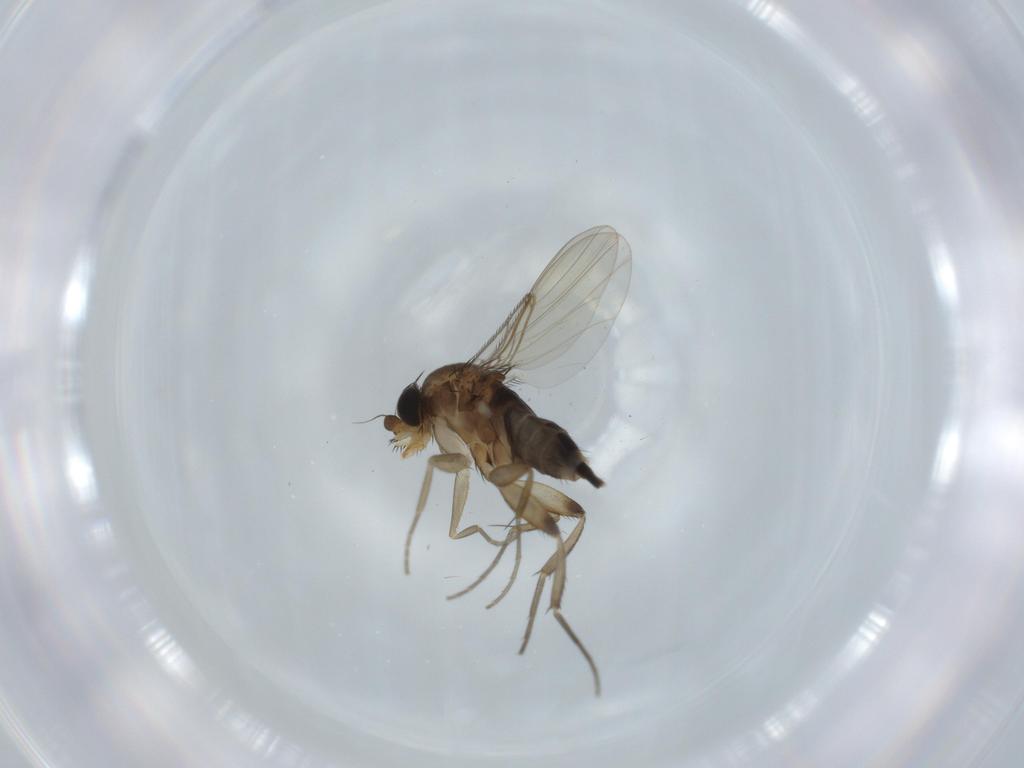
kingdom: Animalia
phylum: Arthropoda
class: Insecta
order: Diptera
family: Phoridae
